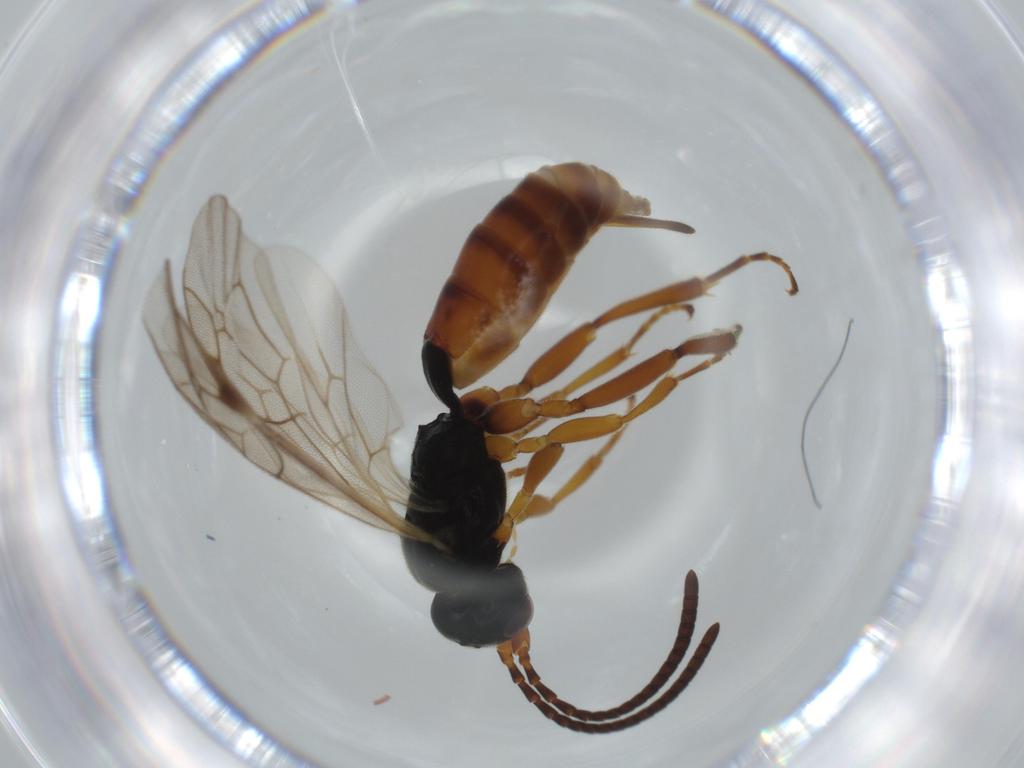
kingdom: Animalia
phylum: Arthropoda
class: Insecta
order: Hymenoptera
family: Ichneumonidae
